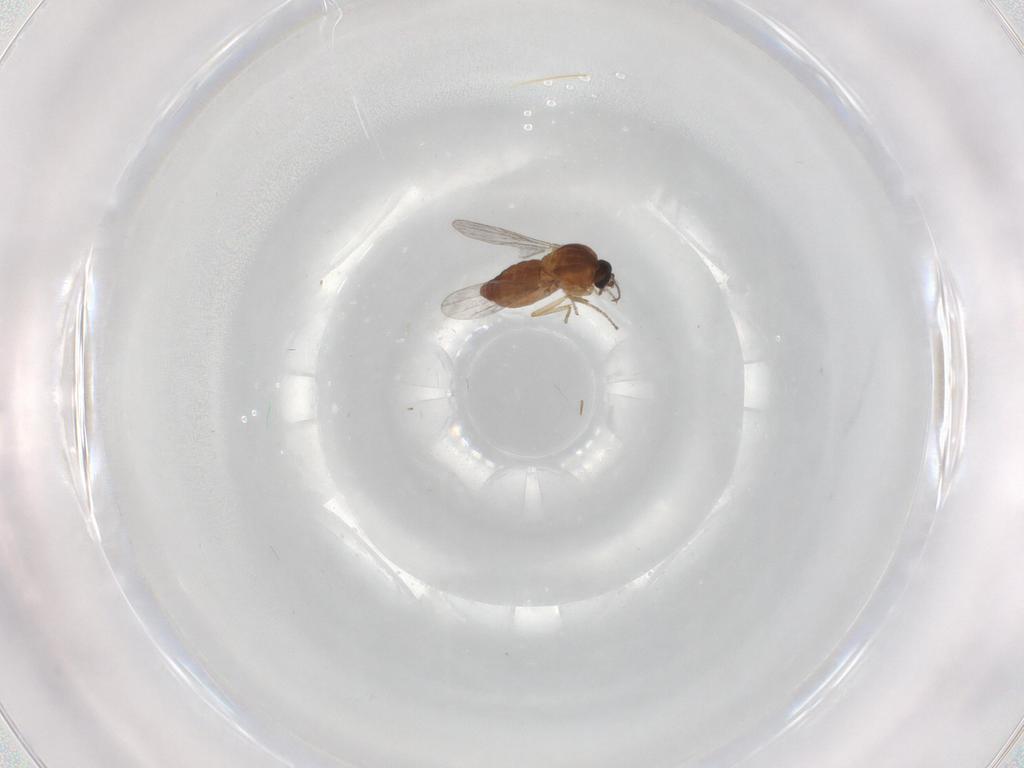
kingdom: Animalia
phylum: Arthropoda
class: Insecta
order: Diptera
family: Ceratopogonidae
